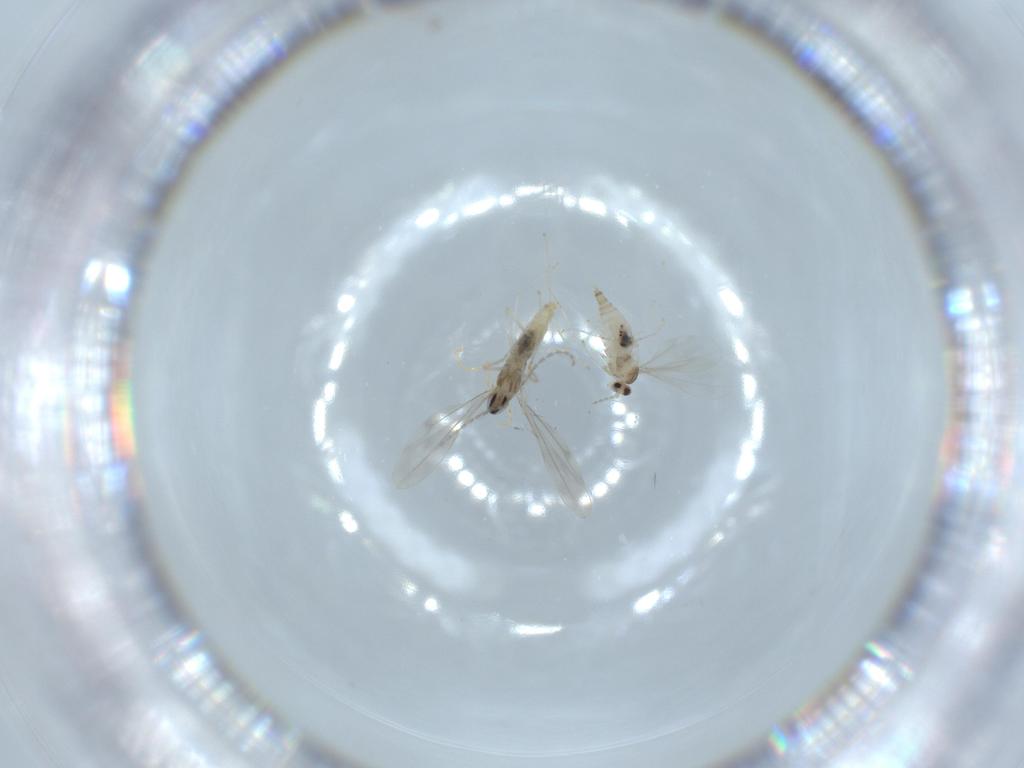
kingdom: Animalia
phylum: Arthropoda
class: Insecta
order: Diptera
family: Cecidomyiidae
